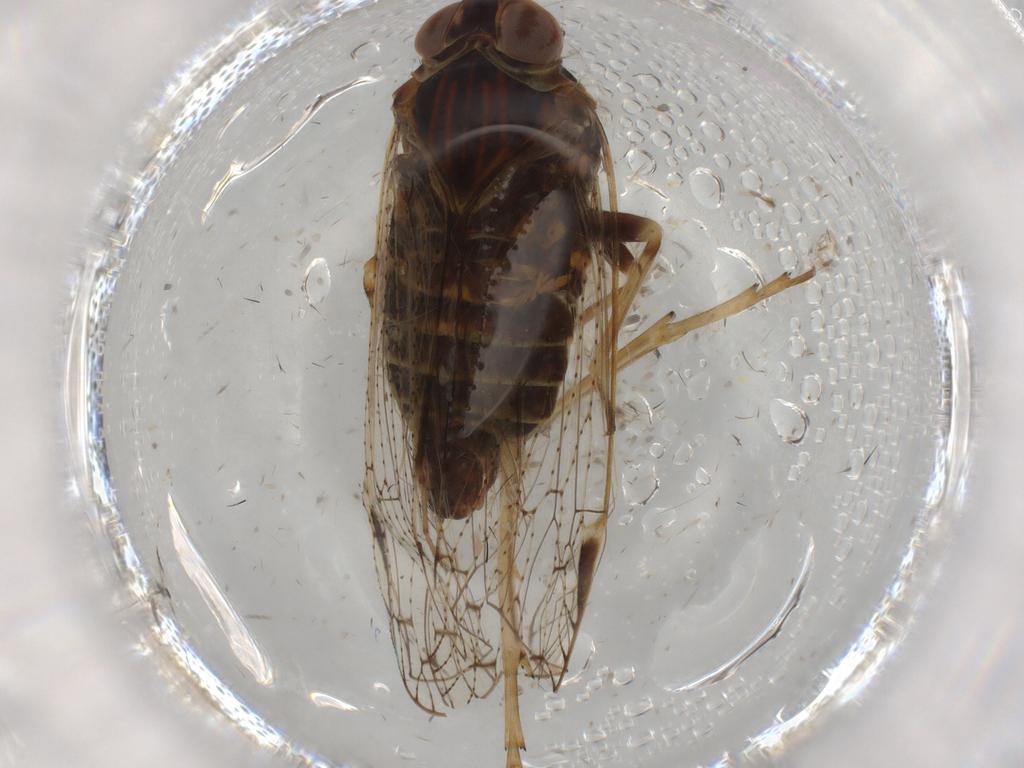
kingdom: Animalia
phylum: Arthropoda
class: Insecta
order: Hemiptera
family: Cixiidae
